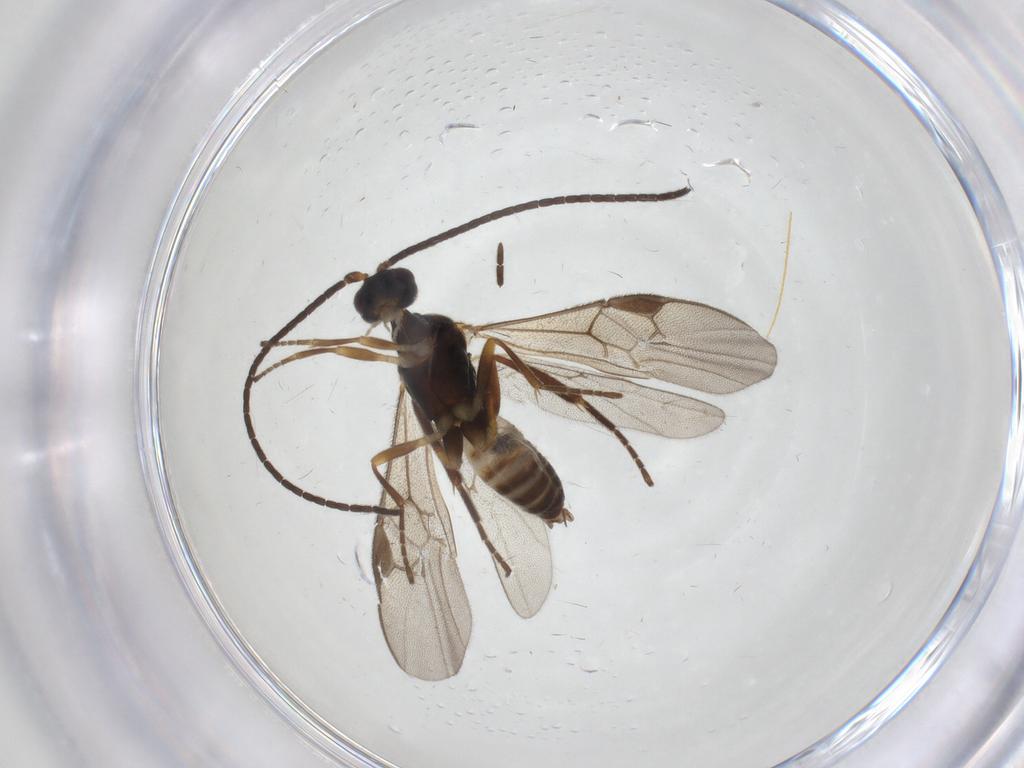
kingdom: Animalia
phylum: Arthropoda
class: Insecta
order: Hymenoptera
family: Braconidae
